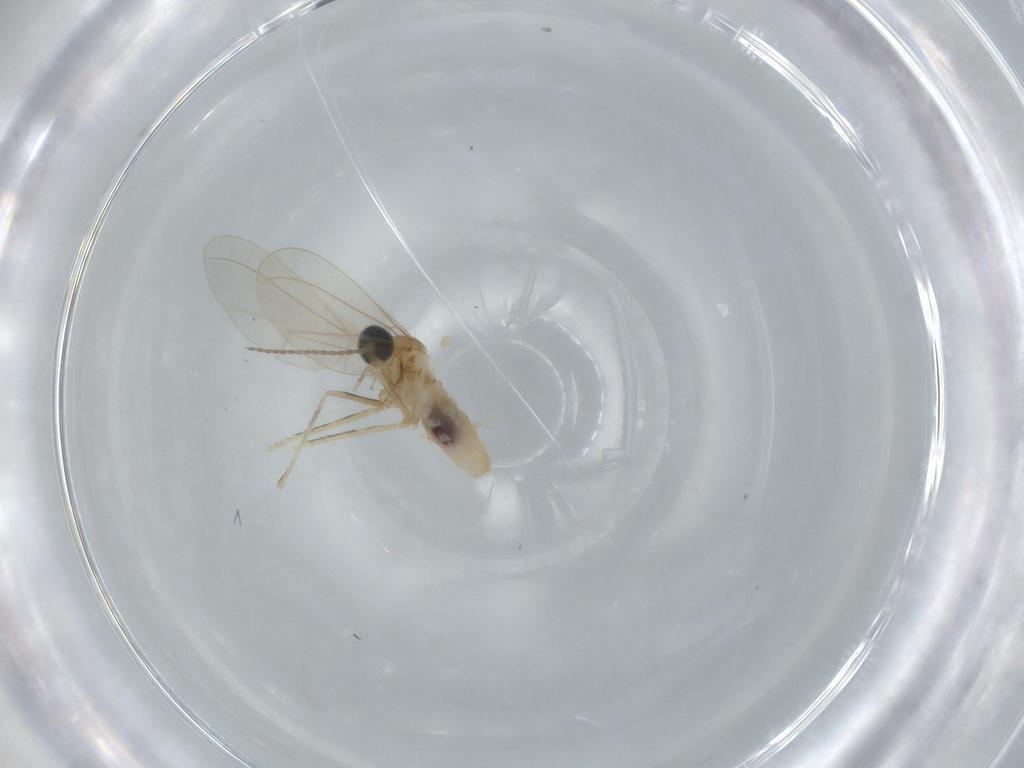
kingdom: Animalia
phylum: Arthropoda
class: Insecta
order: Diptera
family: Cecidomyiidae
